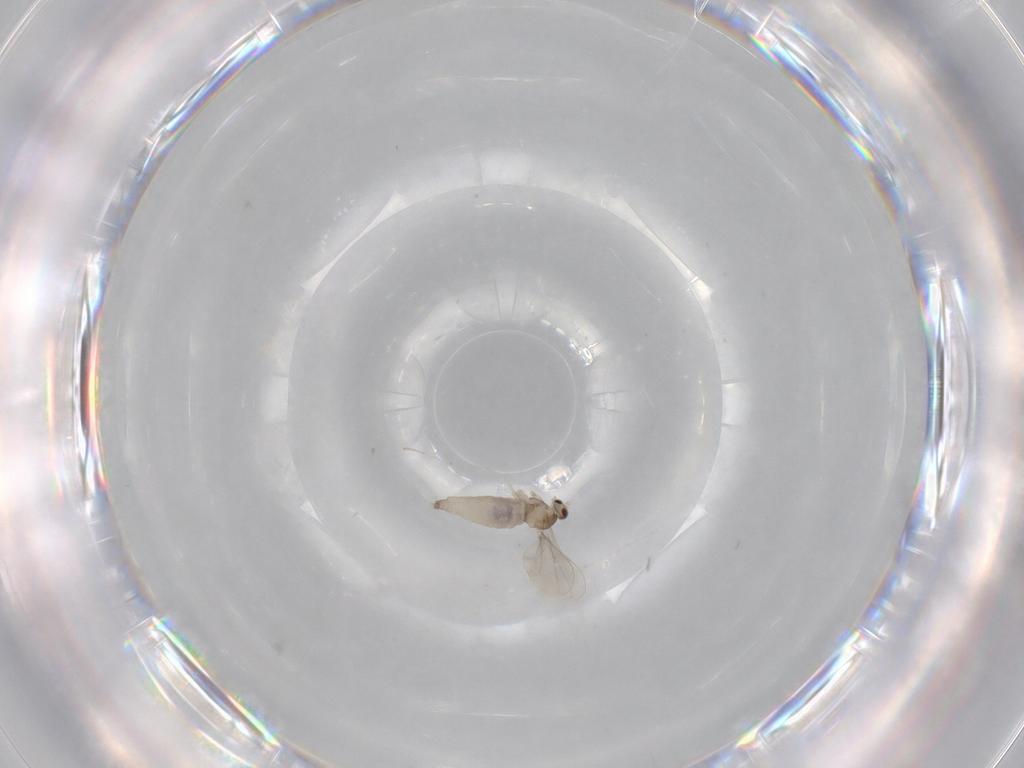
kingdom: Animalia
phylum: Arthropoda
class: Insecta
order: Diptera
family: Cecidomyiidae
